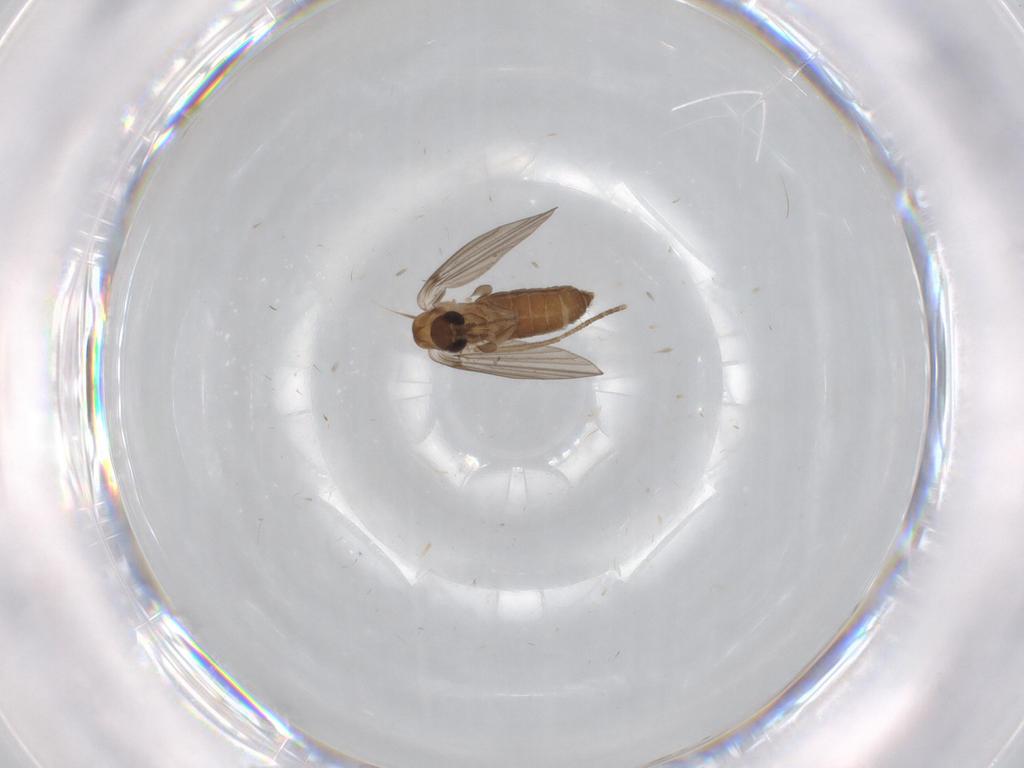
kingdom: Animalia
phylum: Arthropoda
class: Insecta
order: Diptera
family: Cecidomyiidae
